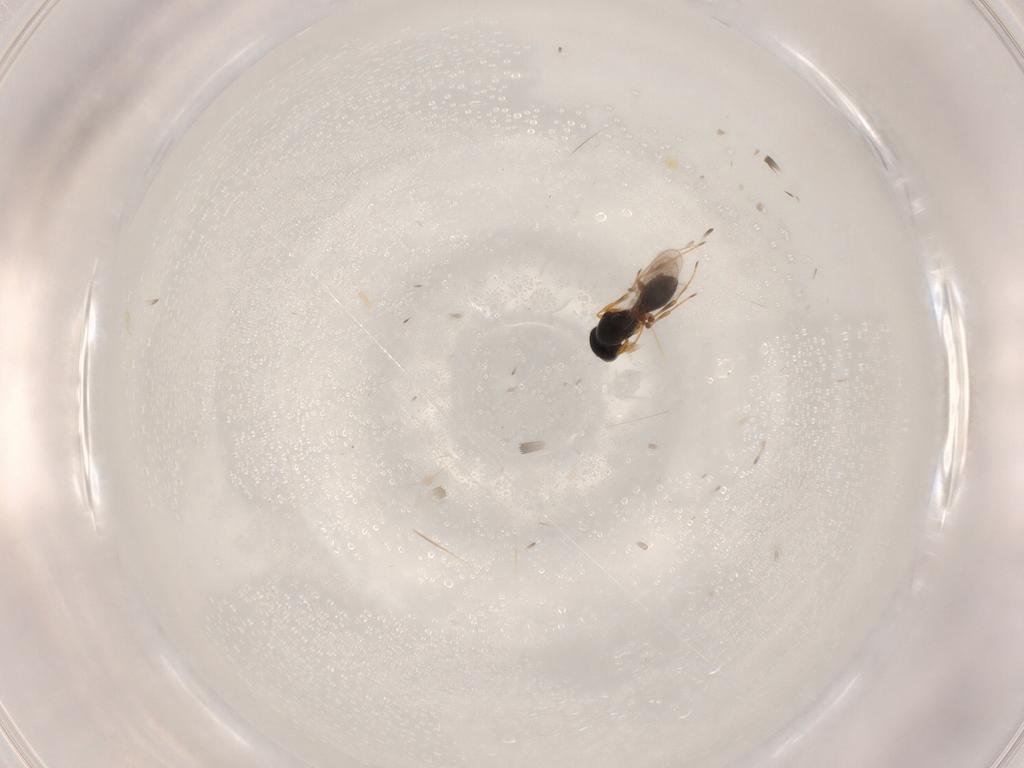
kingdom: Animalia
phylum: Arthropoda
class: Insecta
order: Hymenoptera
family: Platygastridae
